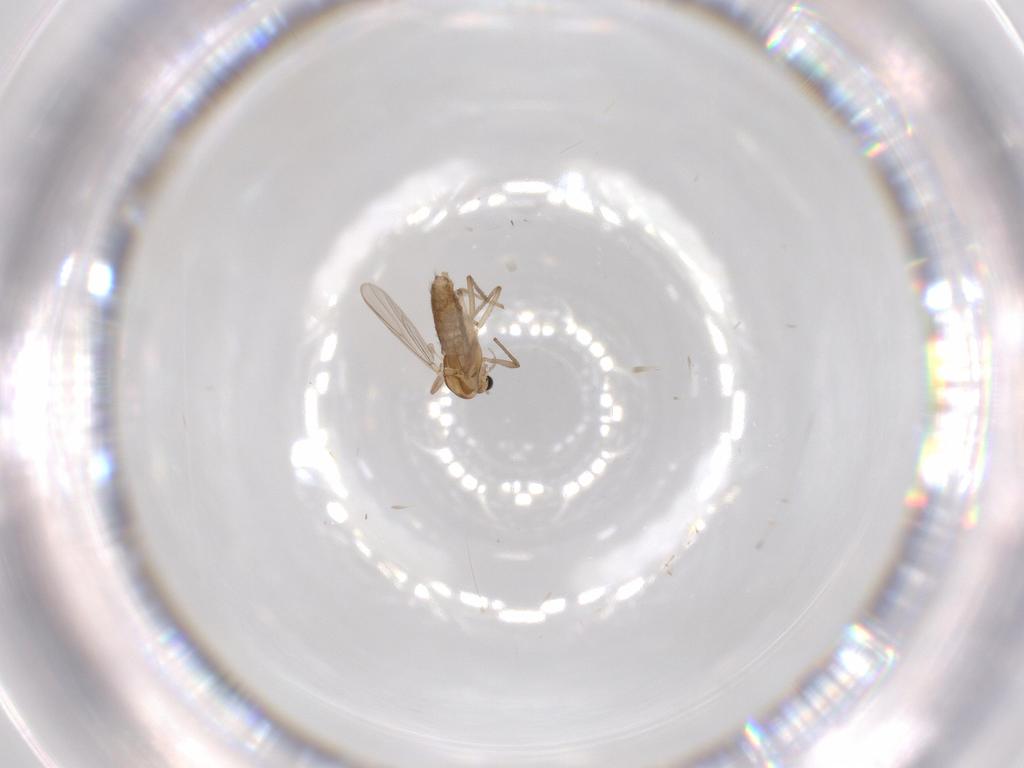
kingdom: Animalia
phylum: Arthropoda
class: Insecta
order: Diptera
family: Chironomidae
